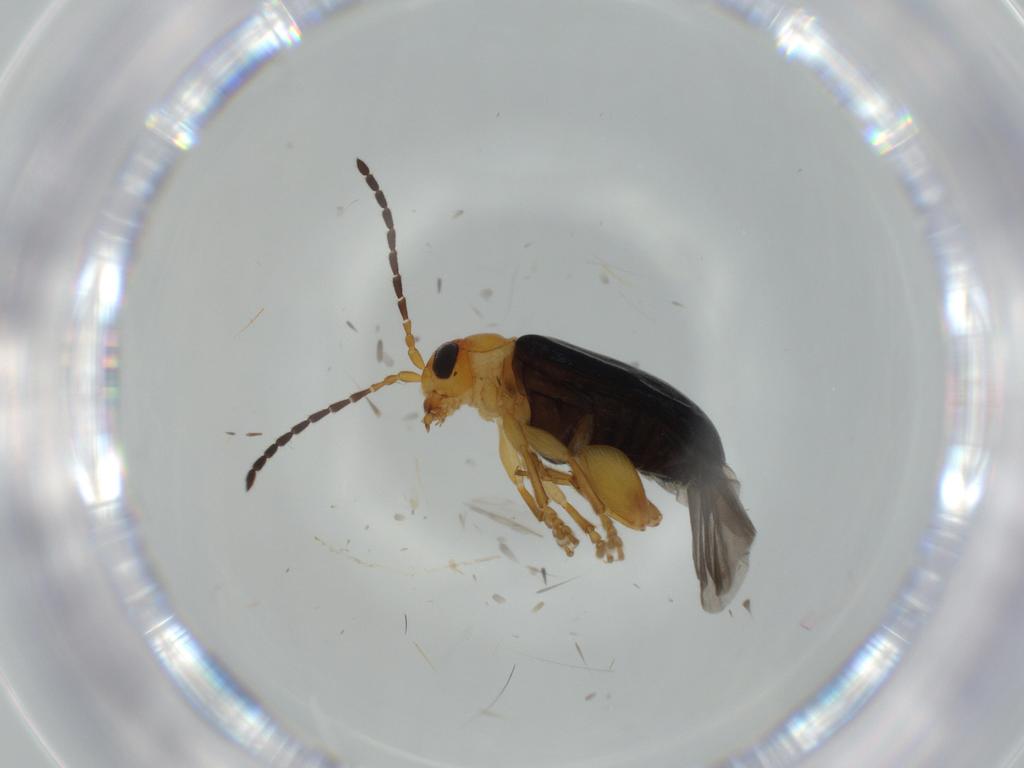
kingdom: Animalia
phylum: Arthropoda
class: Insecta
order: Coleoptera
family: Chrysomelidae
